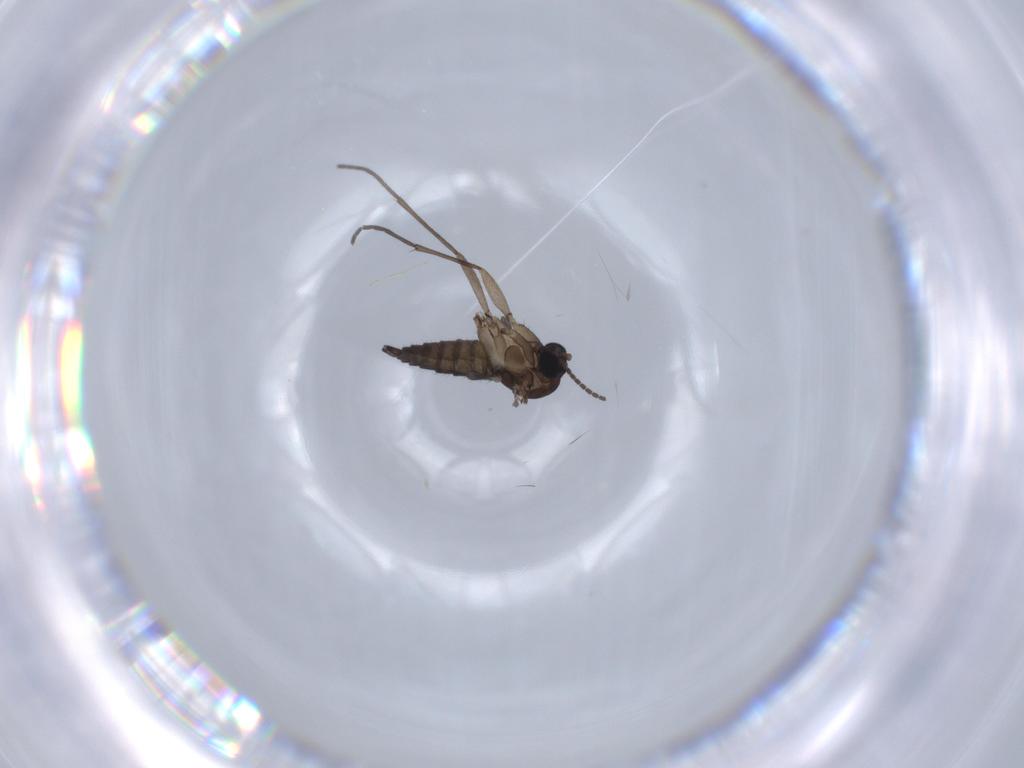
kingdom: Animalia
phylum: Arthropoda
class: Insecta
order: Diptera
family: Sciaridae
